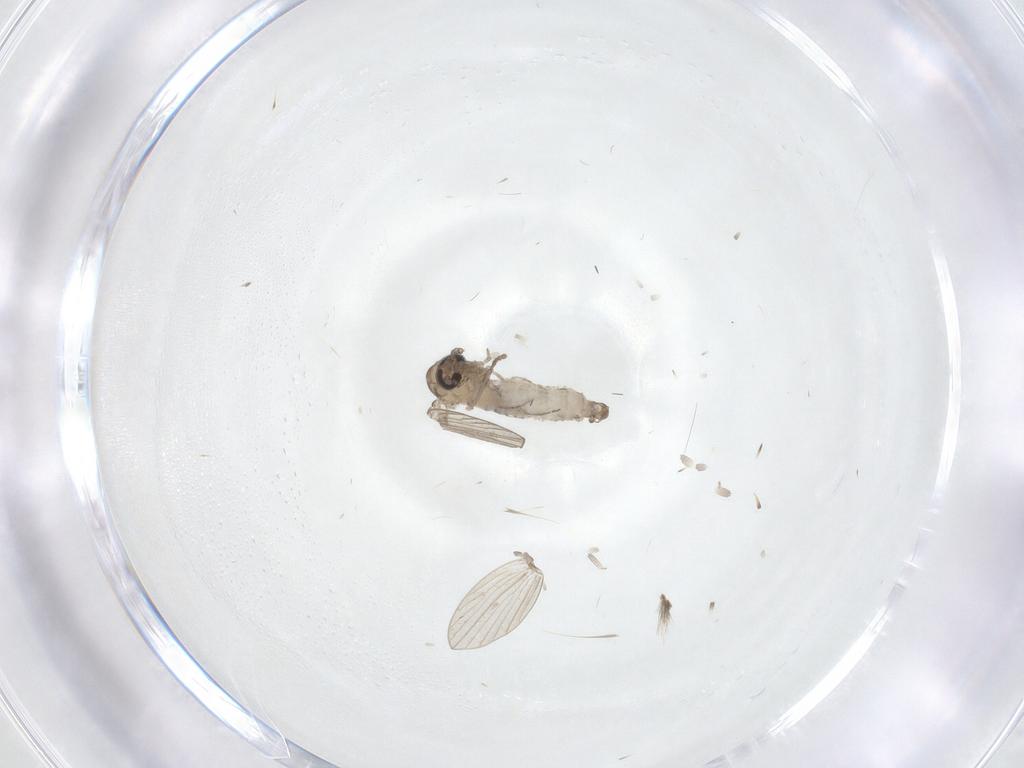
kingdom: Animalia
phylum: Arthropoda
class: Insecta
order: Diptera
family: Psychodidae
